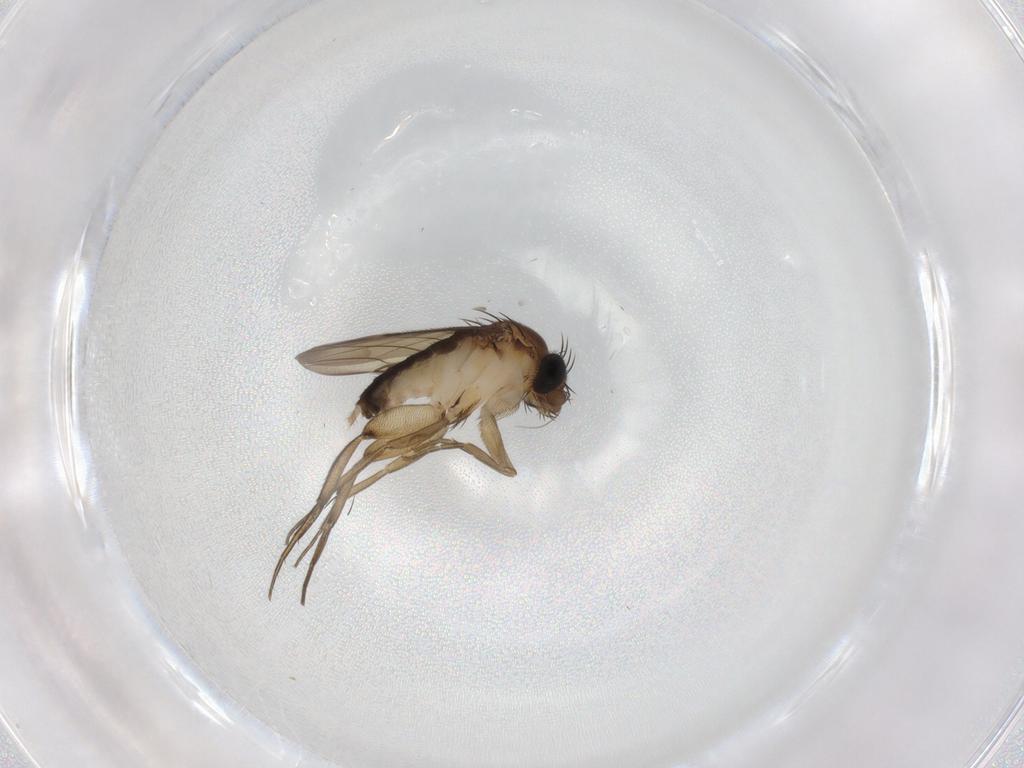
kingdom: Animalia
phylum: Arthropoda
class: Insecta
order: Diptera
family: Phoridae
